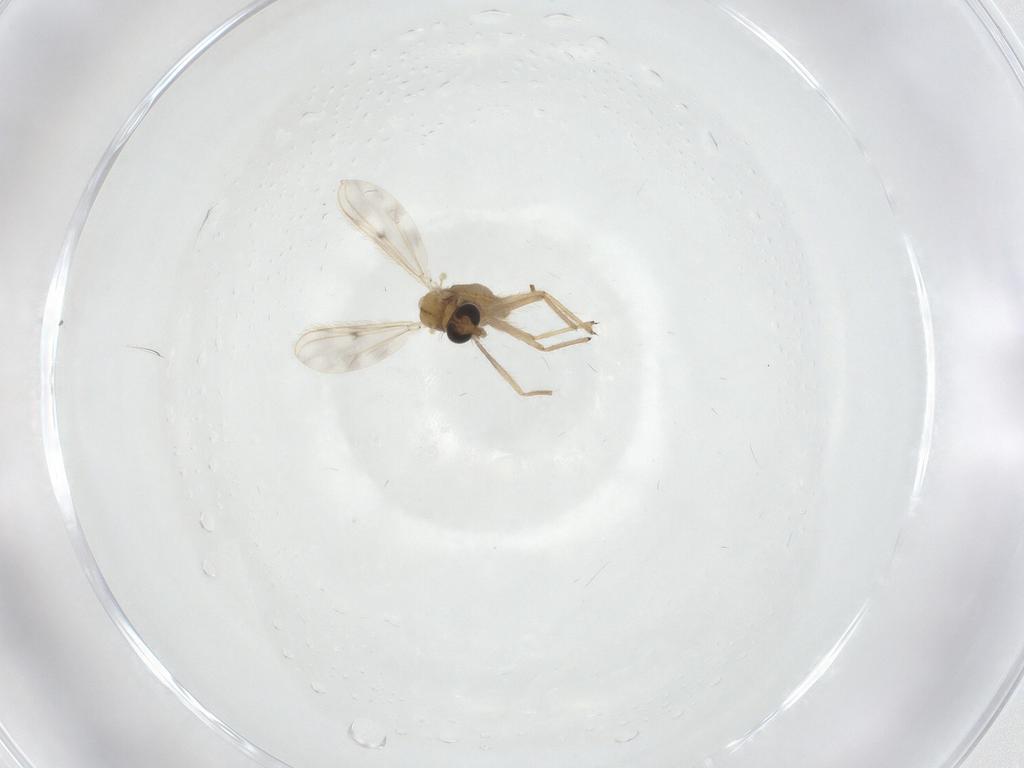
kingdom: Animalia
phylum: Arthropoda
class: Insecta
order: Diptera
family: Chironomidae
